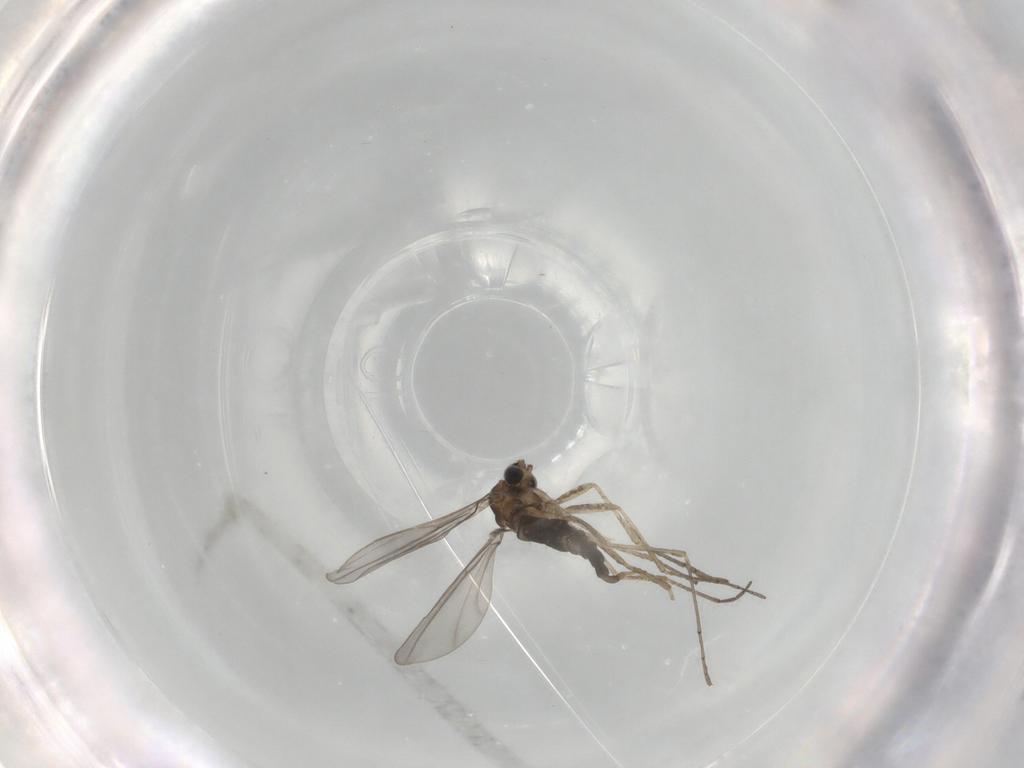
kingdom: Animalia
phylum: Arthropoda
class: Insecta
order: Diptera
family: Cecidomyiidae
